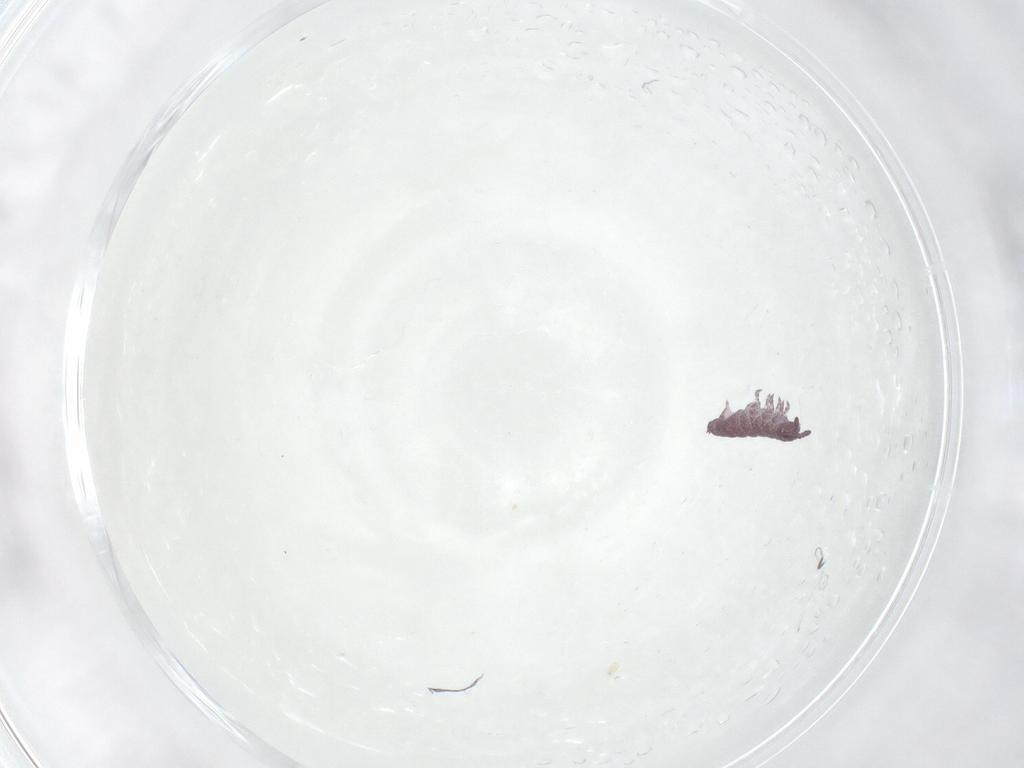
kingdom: Animalia
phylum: Arthropoda
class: Collembola
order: Poduromorpha
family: Hypogastruridae
